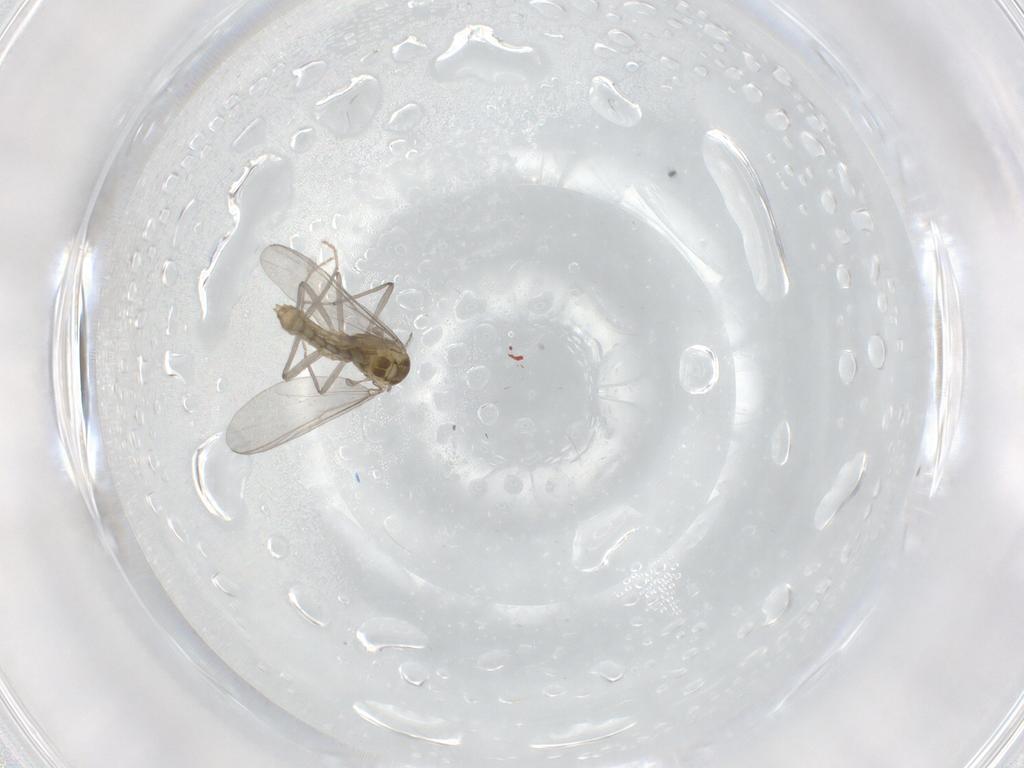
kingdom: Animalia
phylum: Arthropoda
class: Insecta
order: Diptera
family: Chironomidae
